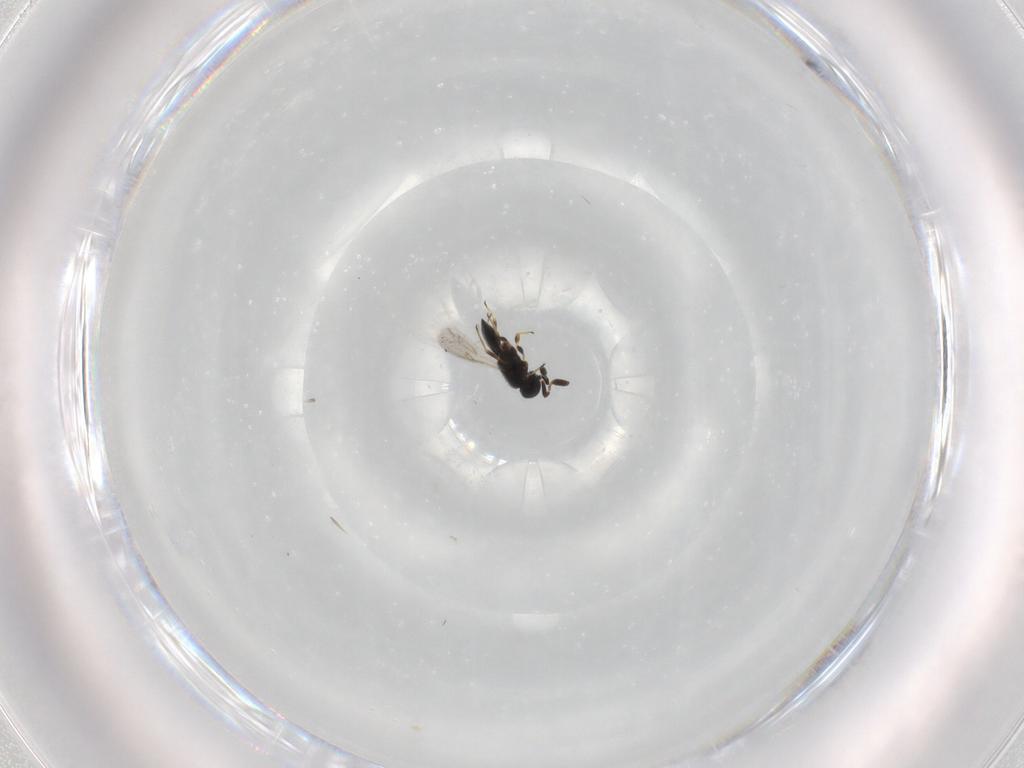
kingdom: Animalia
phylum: Arthropoda
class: Insecta
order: Hymenoptera
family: Scelionidae
